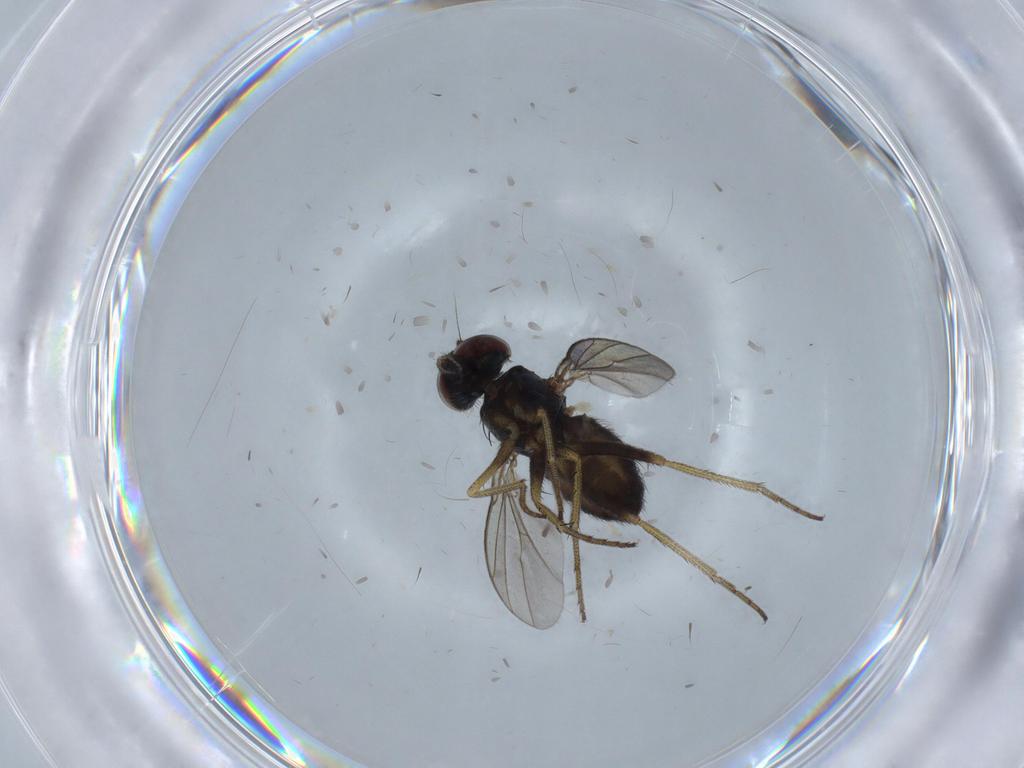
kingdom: Animalia
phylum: Arthropoda
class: Insecta
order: Diptera
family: Chironomidae
